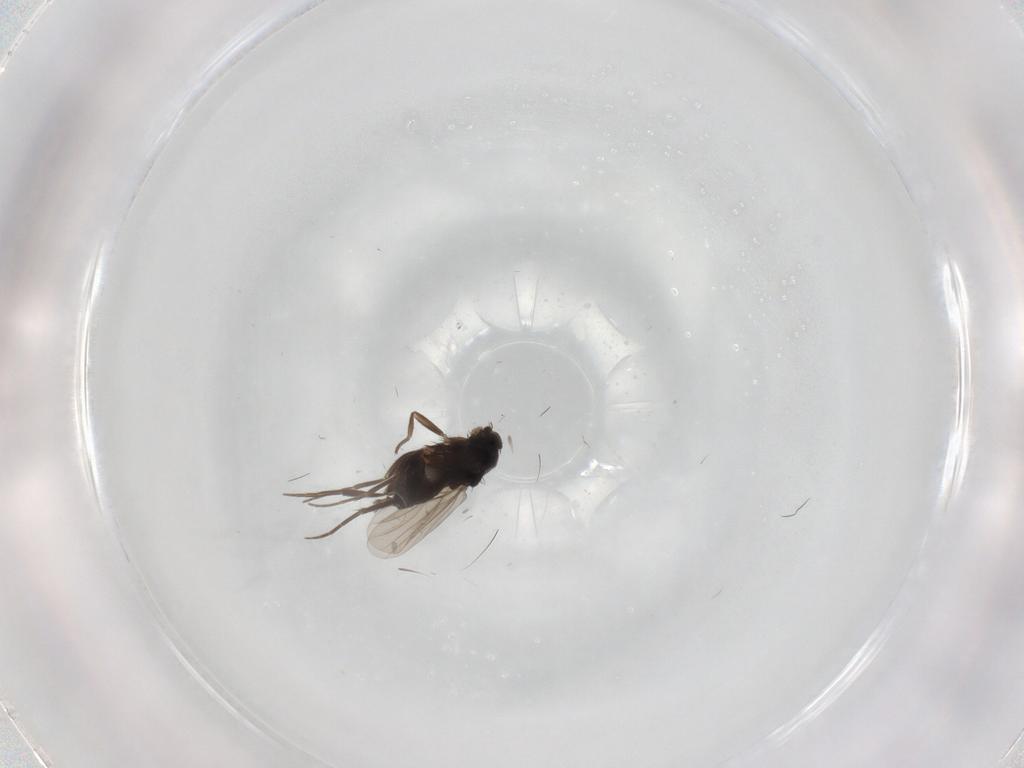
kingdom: Animalia
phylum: Arthropoda
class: Insecta
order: Diptera
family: Phoridae
